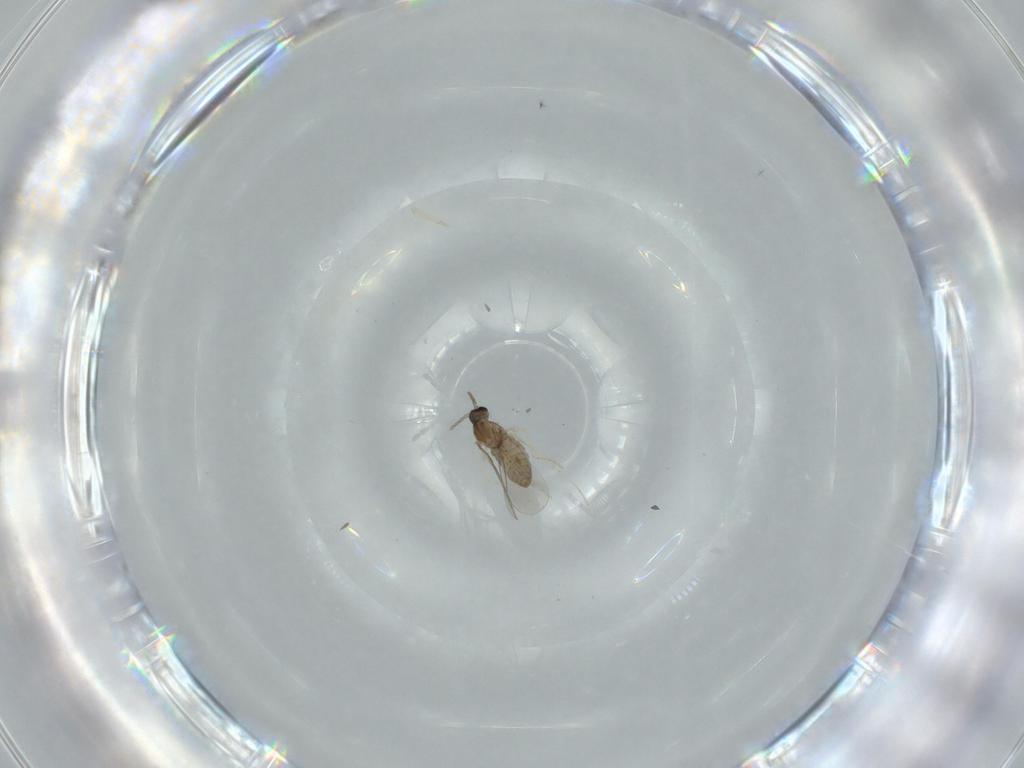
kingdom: Animalia
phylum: Arthropoda
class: Insecta
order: Diptera
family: Cecidomyiidae
